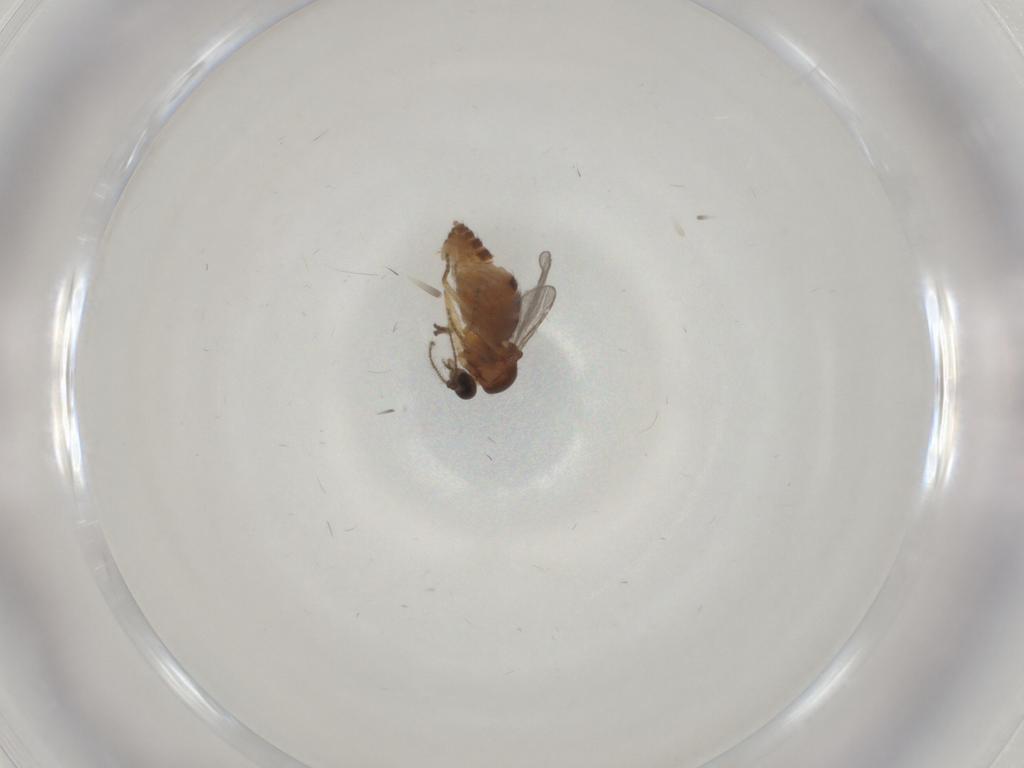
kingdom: Animalia
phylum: Arthropoda
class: Insecta
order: Diptera
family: Ceratopogonidae
